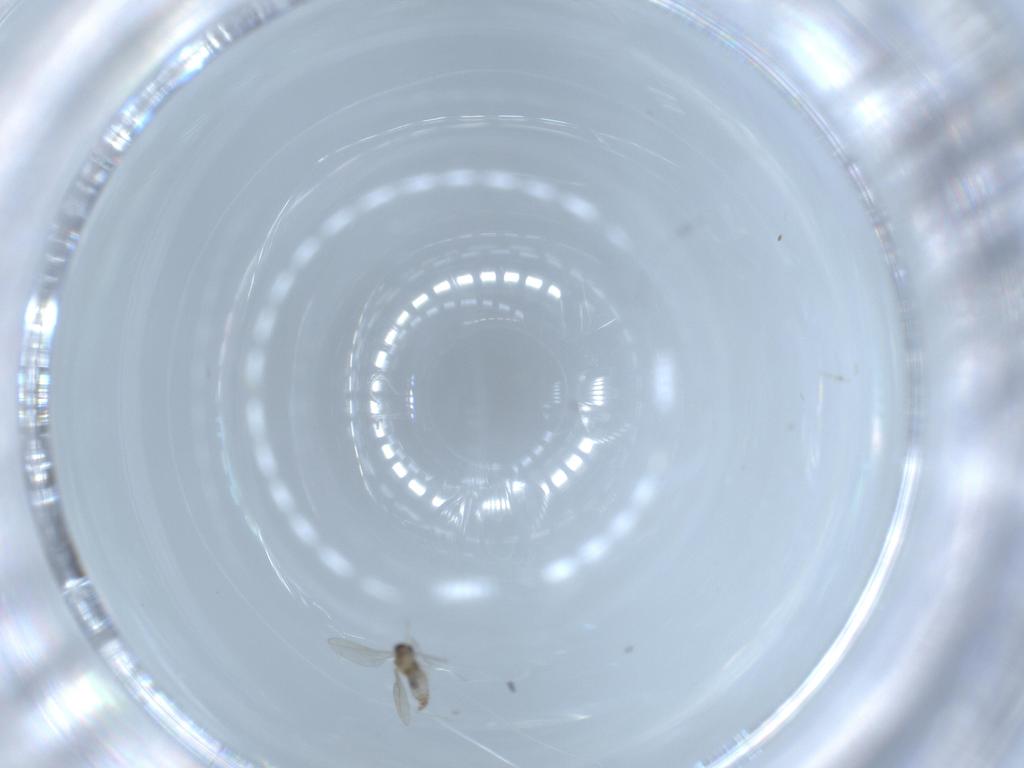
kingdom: Animalia
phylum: Arthropoda
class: Insecta
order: Diptera
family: Cecidomyiidae
